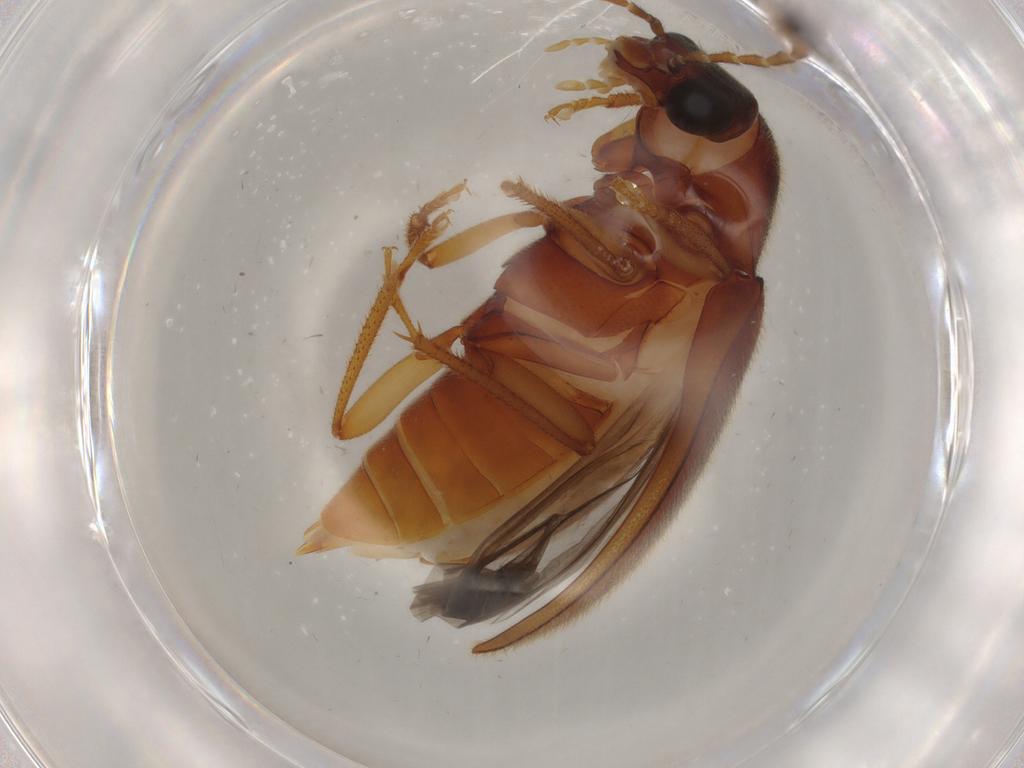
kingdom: Animalia
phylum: Arthropoda
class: Insecta
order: Coleoptera
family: Ptilodactylidae
